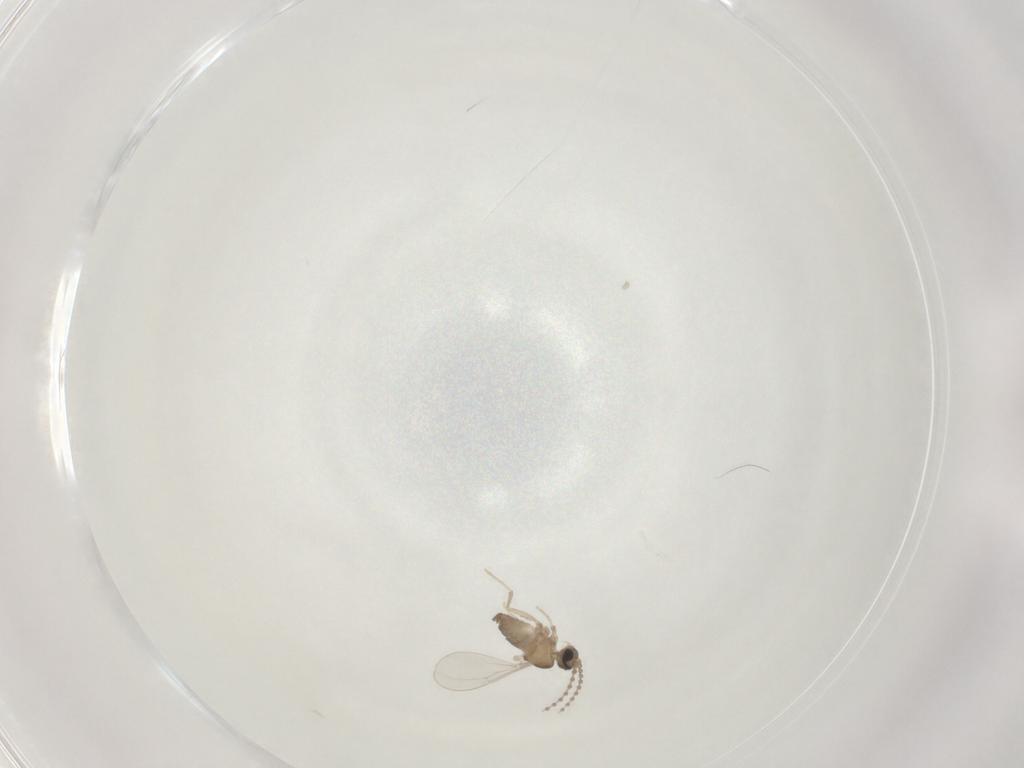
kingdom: Animalia
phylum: Arthropoda
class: Insecta
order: Diptera
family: Cecidomyiidae
